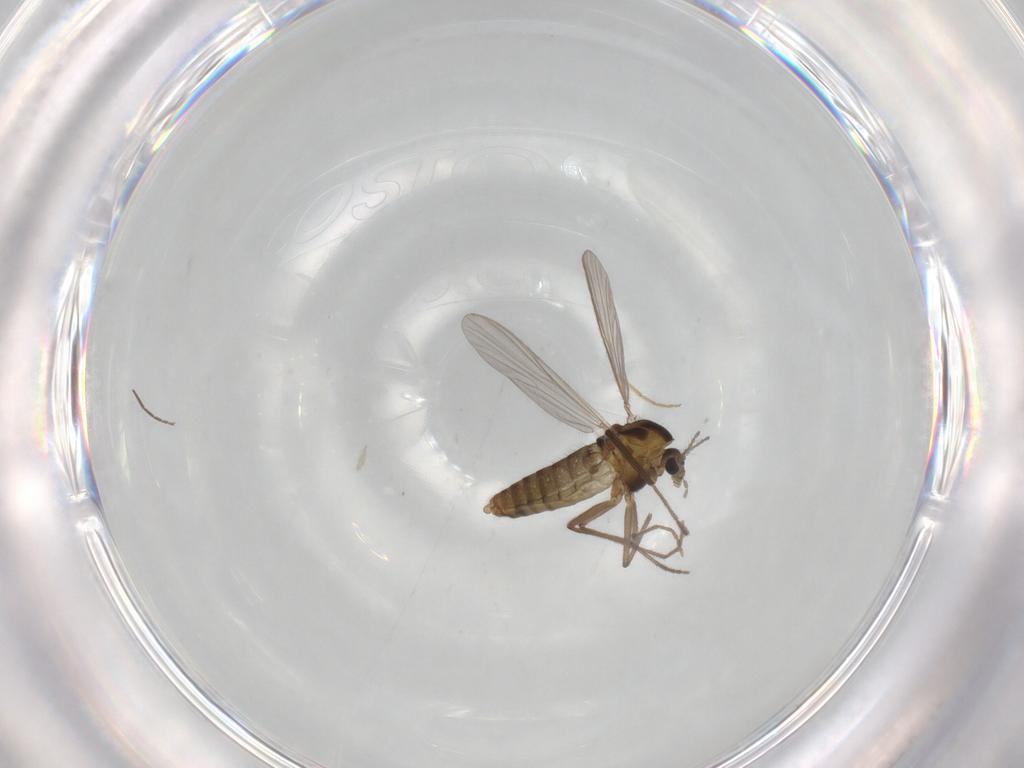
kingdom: Animalia
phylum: Arthropoda
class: Insecta
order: Diptera
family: Chironomidae
